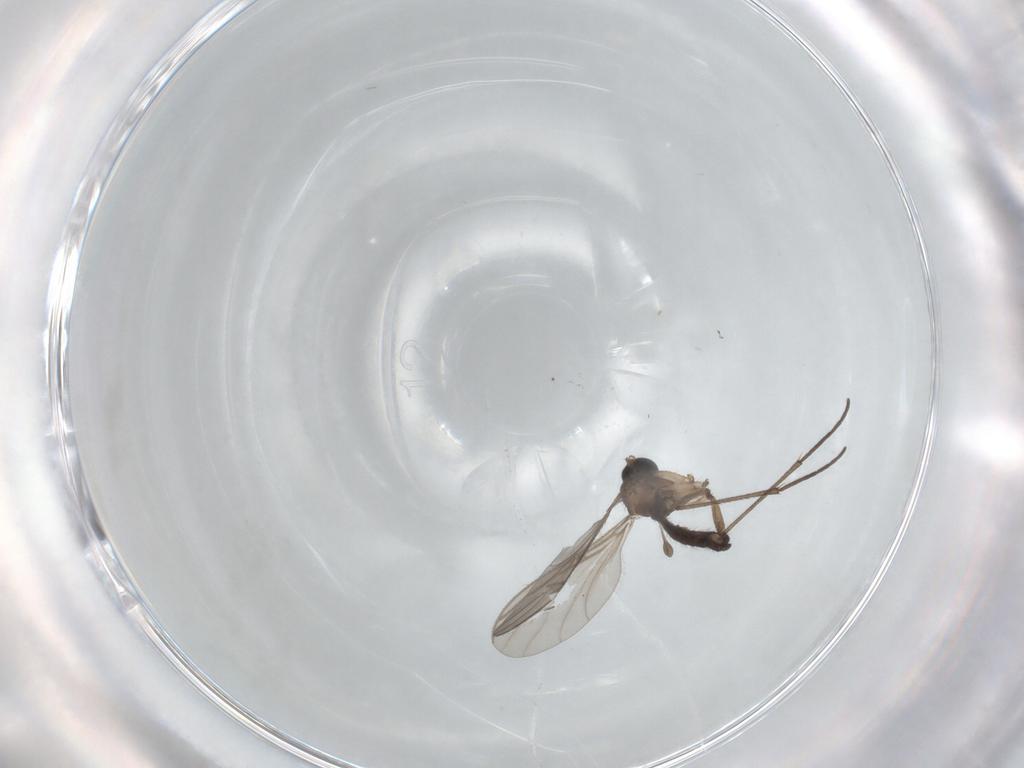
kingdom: Animalia
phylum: Arthropoda
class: Insecta
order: Diptera
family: Sciaridae
